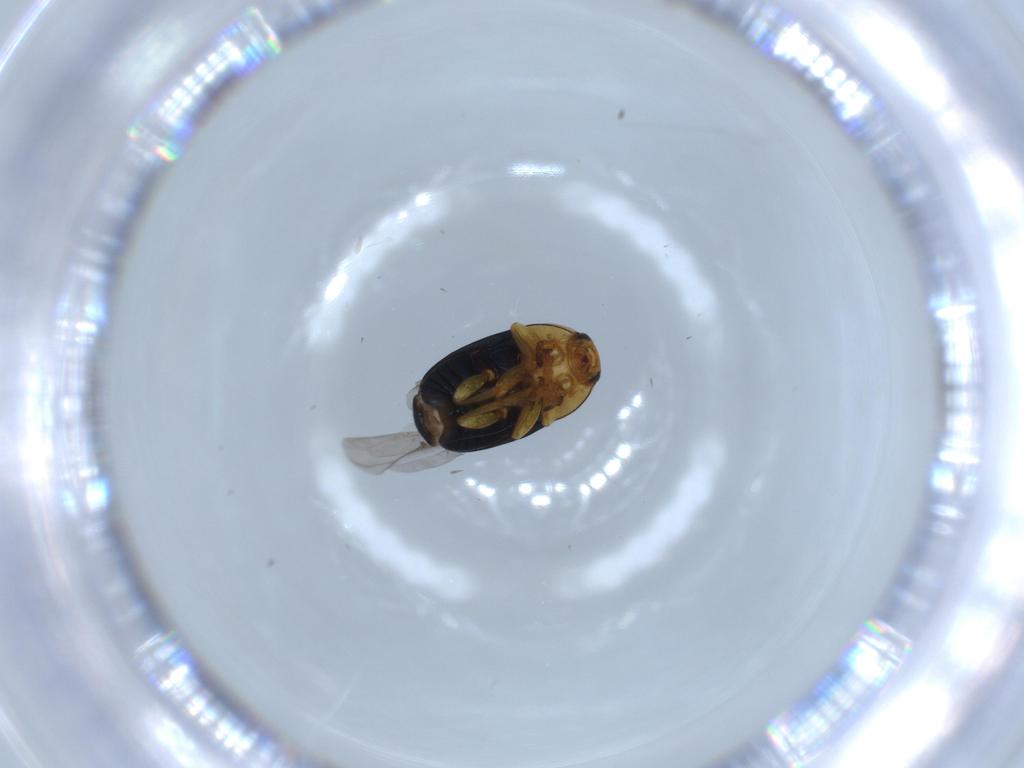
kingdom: Animalia
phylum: Arthropoda
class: Insecta
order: Coleoptera
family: Chrysomelidae
